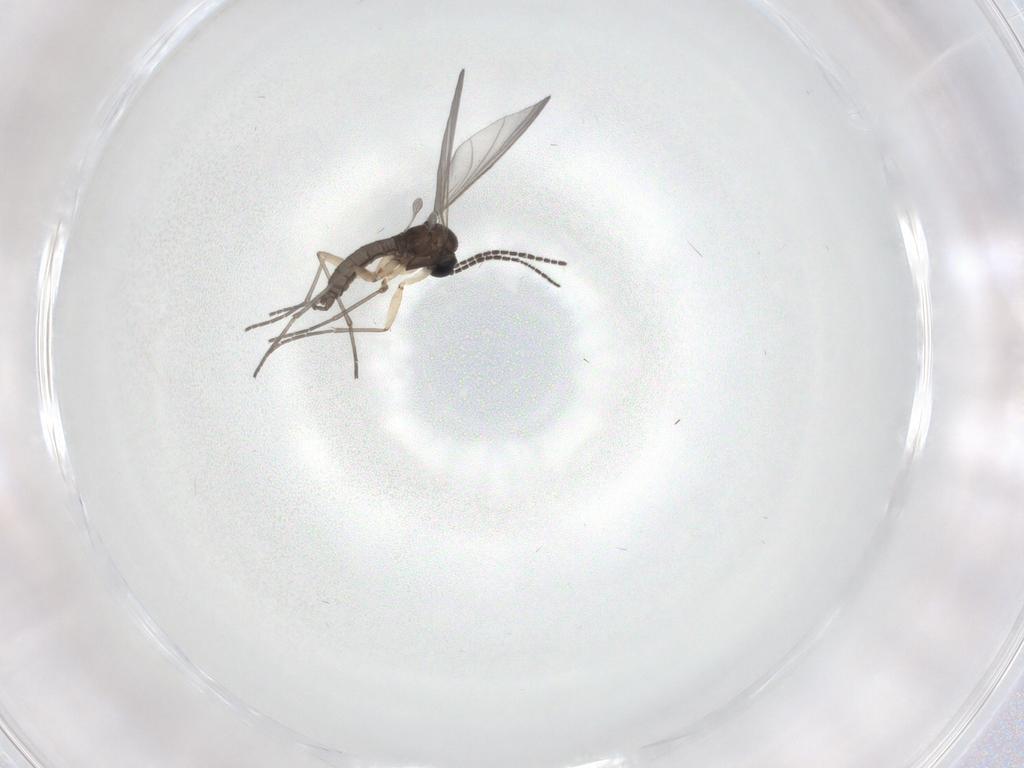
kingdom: Animalia
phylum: Arthropoda
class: Insecta
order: Diptera
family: Sciaridae
